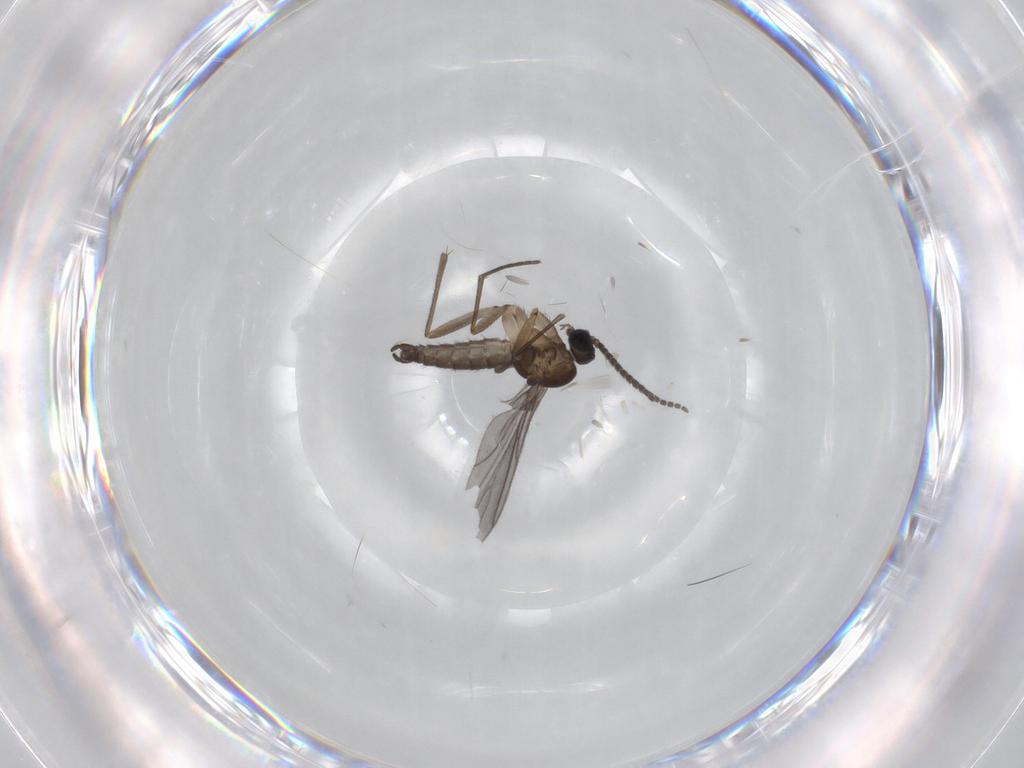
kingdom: Animalia
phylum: Arthropoda
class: Insecta
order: Diptera
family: Sciaridae
